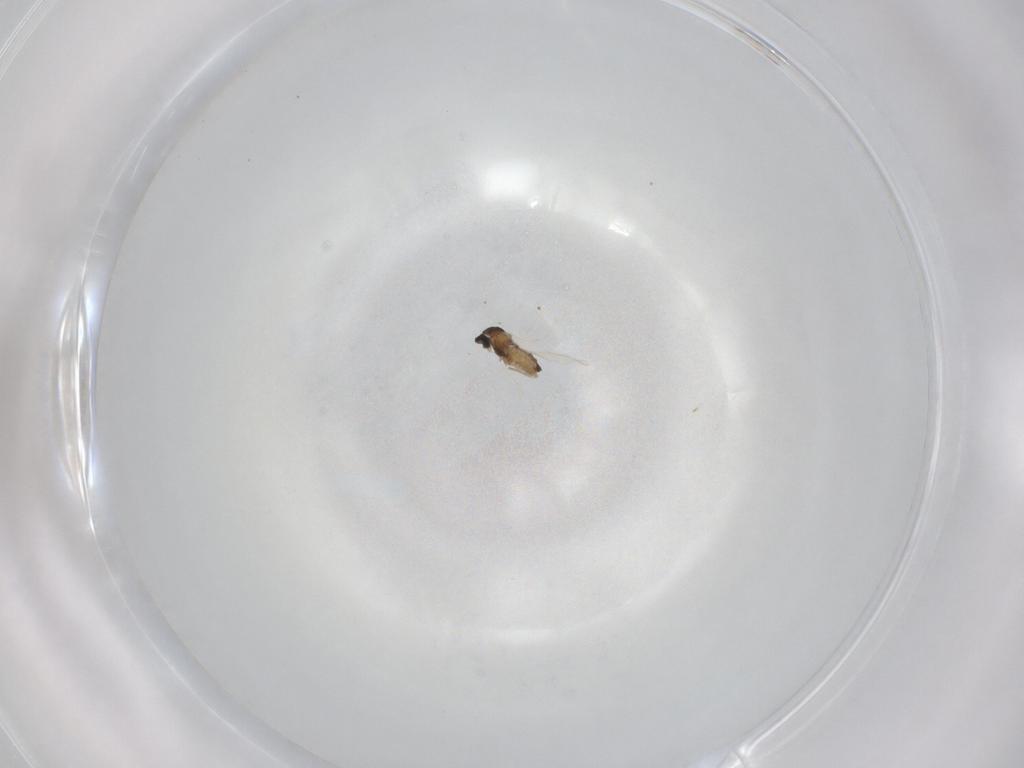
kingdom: Animalia
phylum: Arthropoda
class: Insecta
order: Diptera
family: Cecidomyiidae
